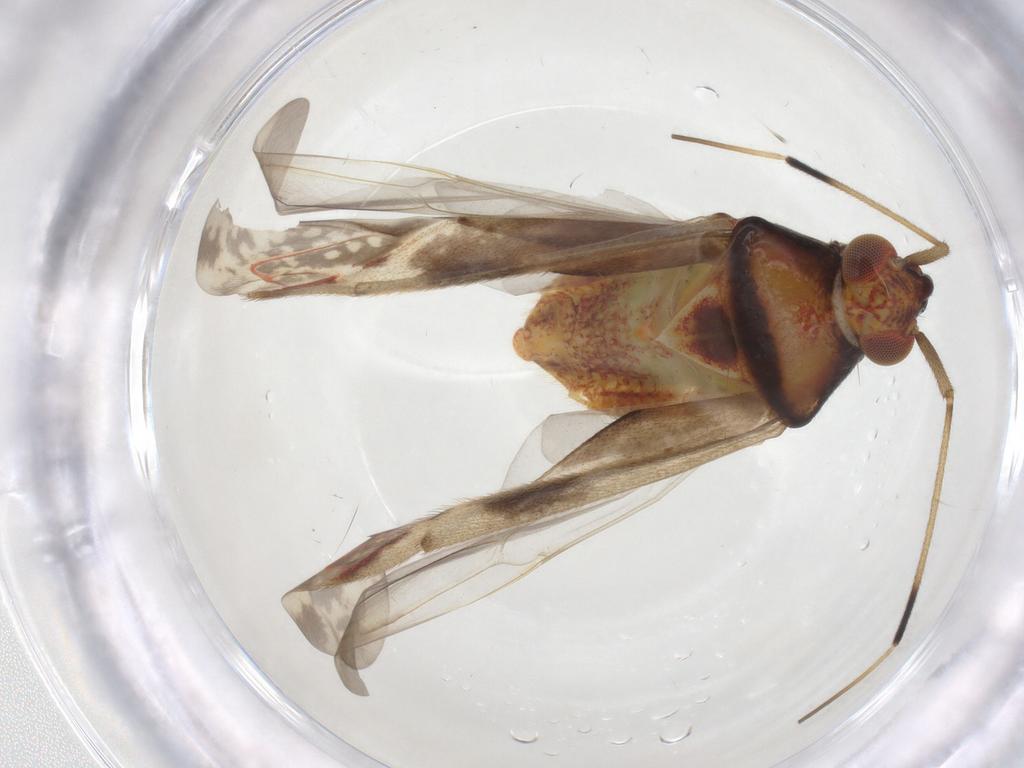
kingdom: Animalia
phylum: Arthropoda
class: Insecta
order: Hemiptera
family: Miridae
